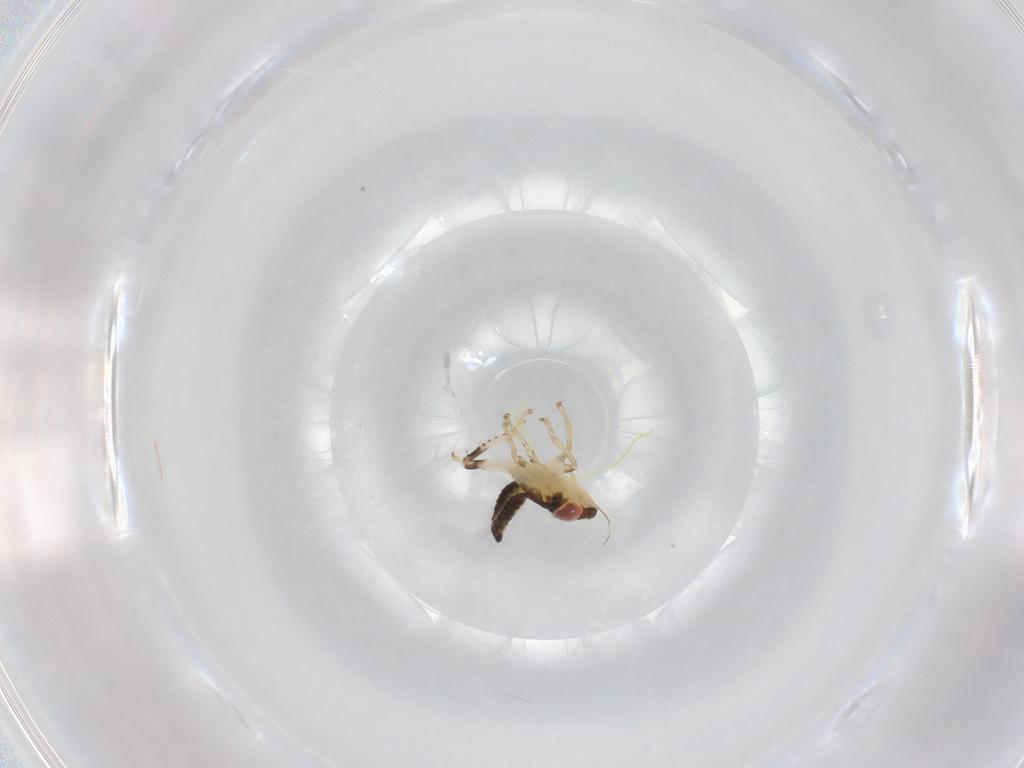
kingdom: Animalia
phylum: Arthropoda
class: Insecta
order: Hemiptera
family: Cicadellidae
